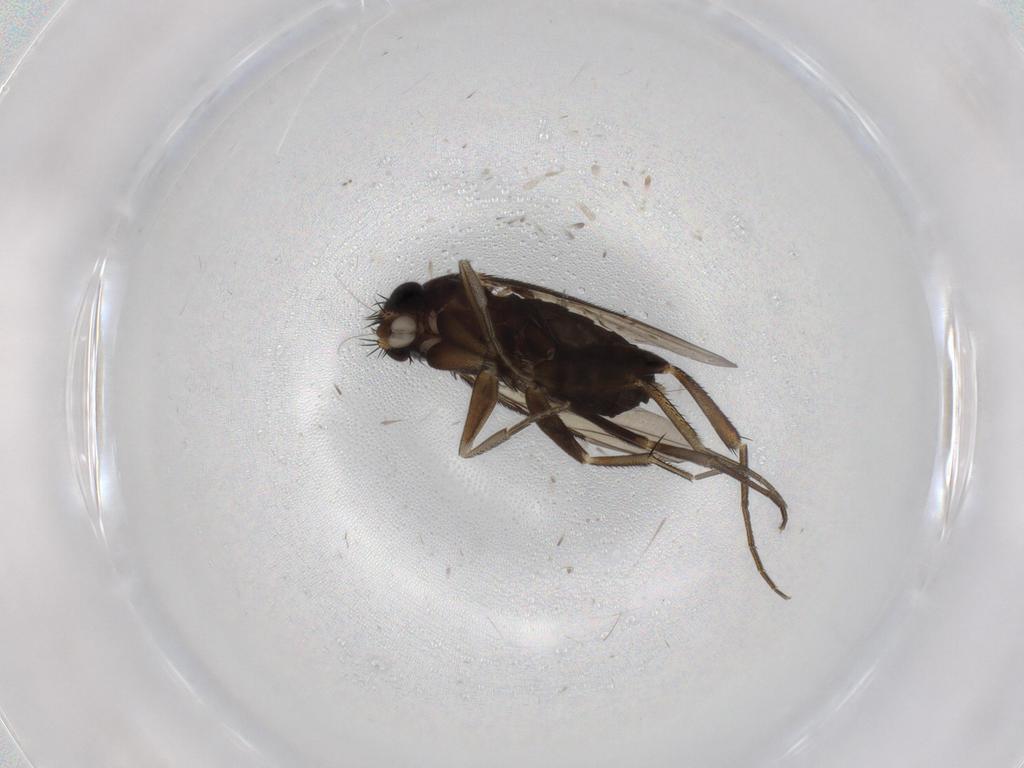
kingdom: Animalia
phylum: Arthropoda
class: Insecta
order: Diptera
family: Phoridae
